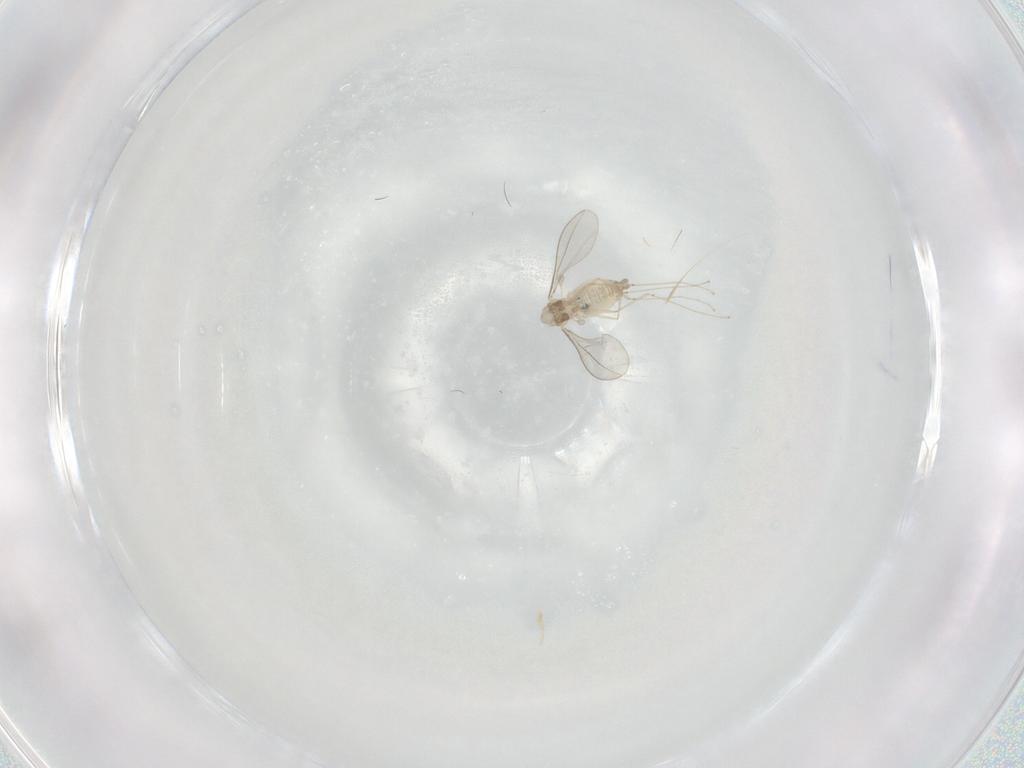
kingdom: Animalia
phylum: Arthropoda
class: Insecta
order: Diptera
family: Cecidomyiidae
